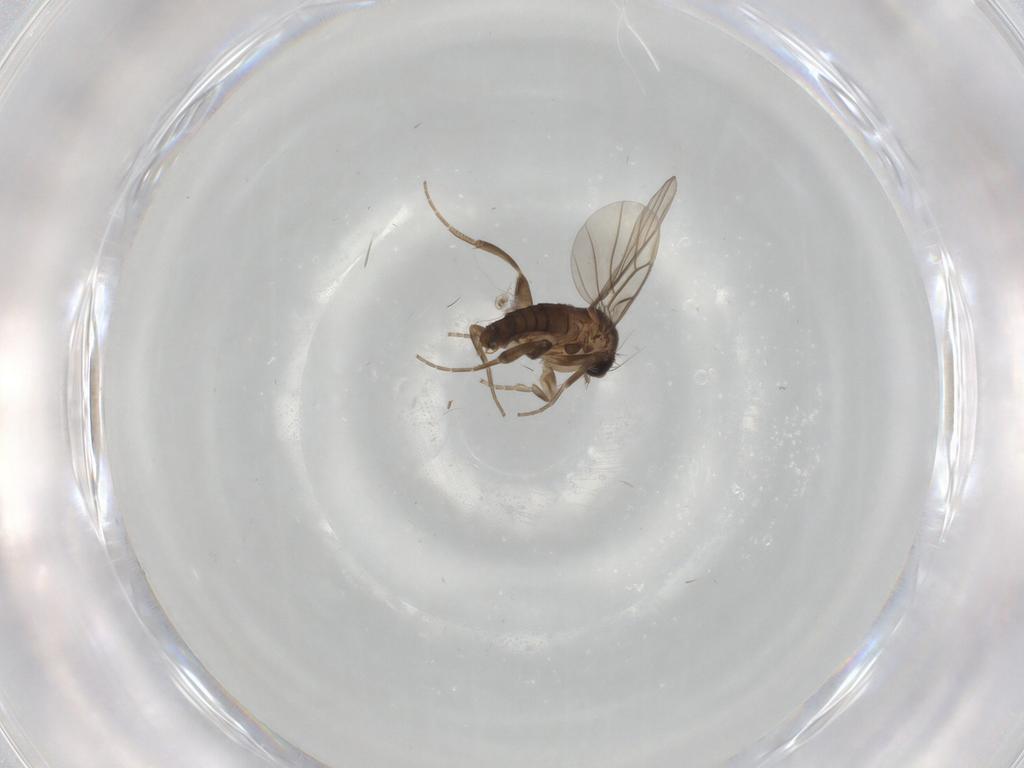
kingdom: Animalia
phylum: Arthropoda
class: Insecta
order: Diptera
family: Phoridae
